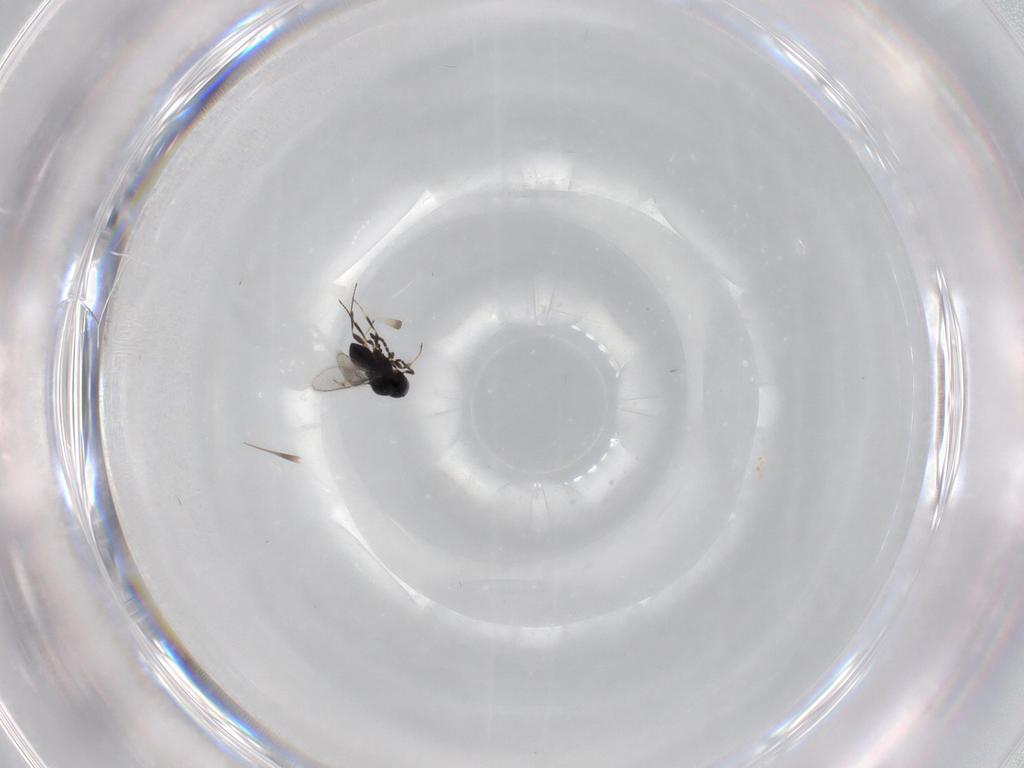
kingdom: Animalia
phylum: Arthropoda
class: Insecta
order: Hymenoptera
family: Scelionidae
